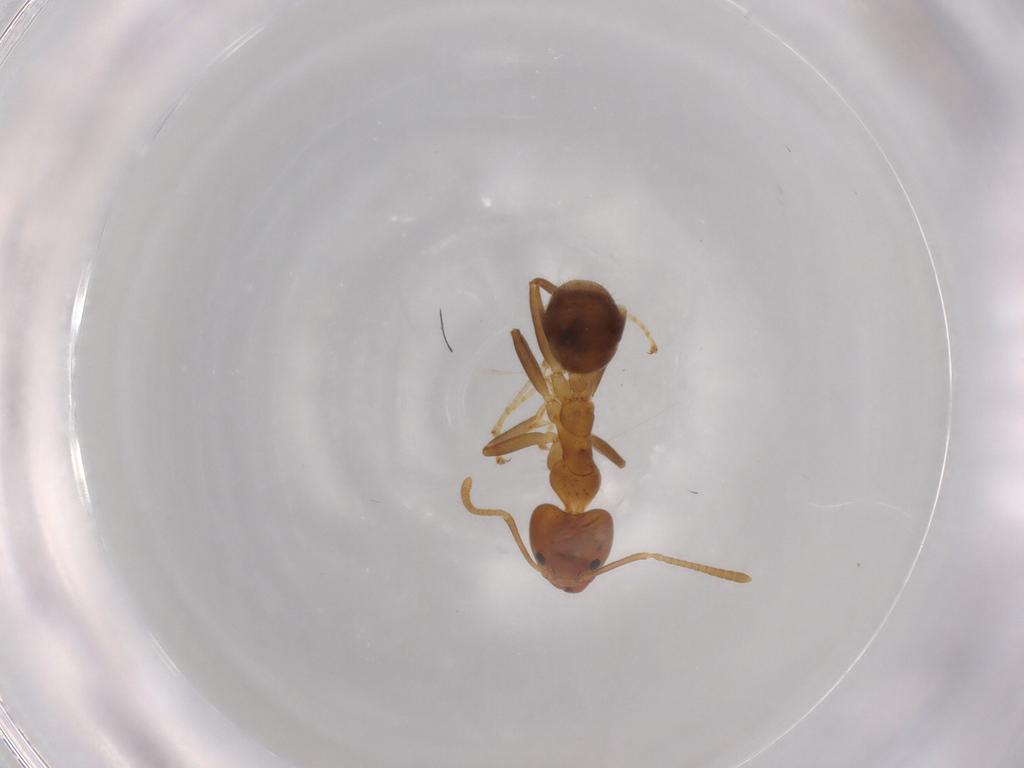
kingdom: Animalia
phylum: Arthropoda
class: Insecta
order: Hymenoptera
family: Formicidae
